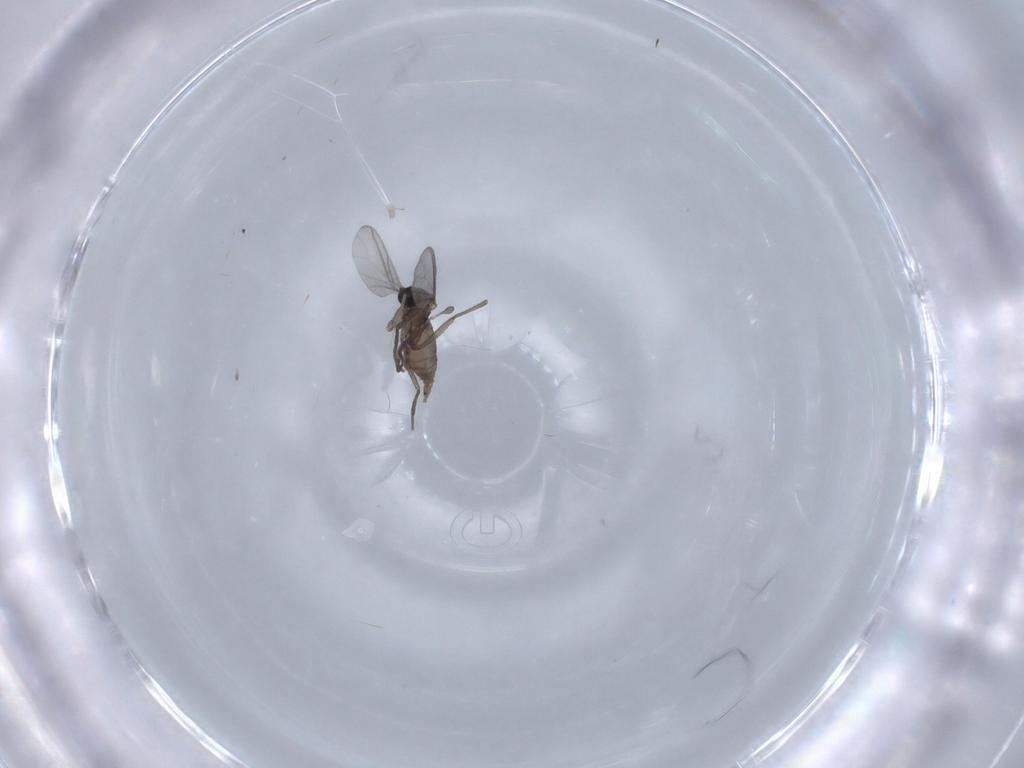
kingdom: Animalia
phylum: Arthropoda
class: Insecta
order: Diptera
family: Sciaridae
